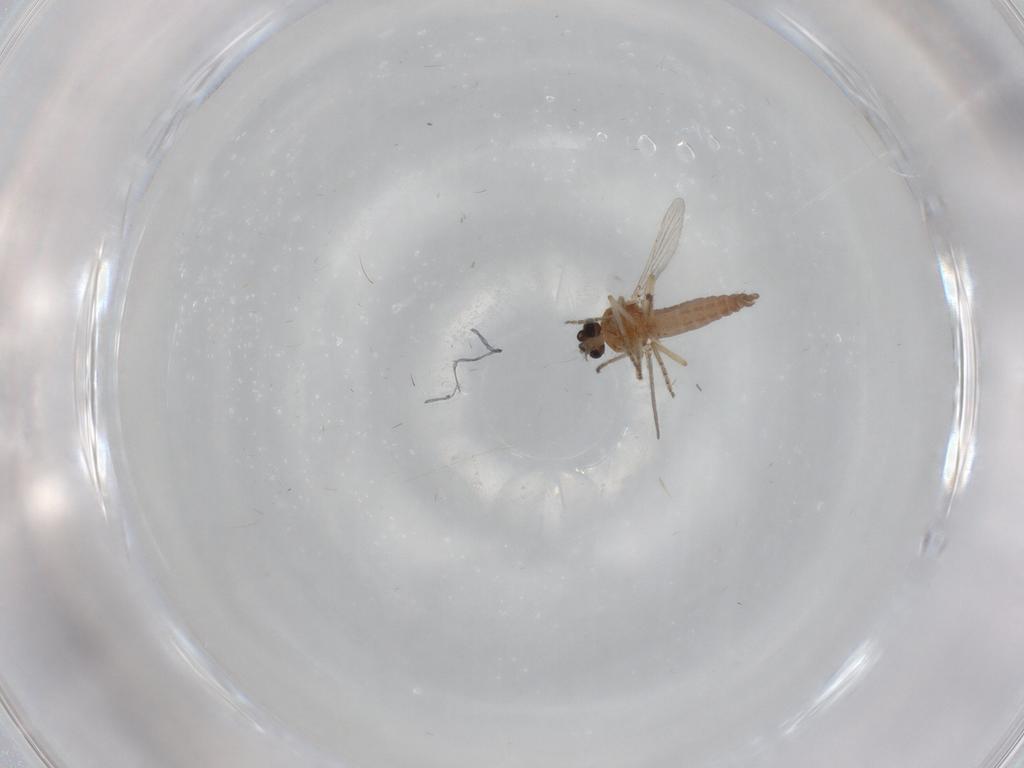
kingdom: Animalia
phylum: Arthropoda
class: Insecta
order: Diptera
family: Ceratopogonidae
